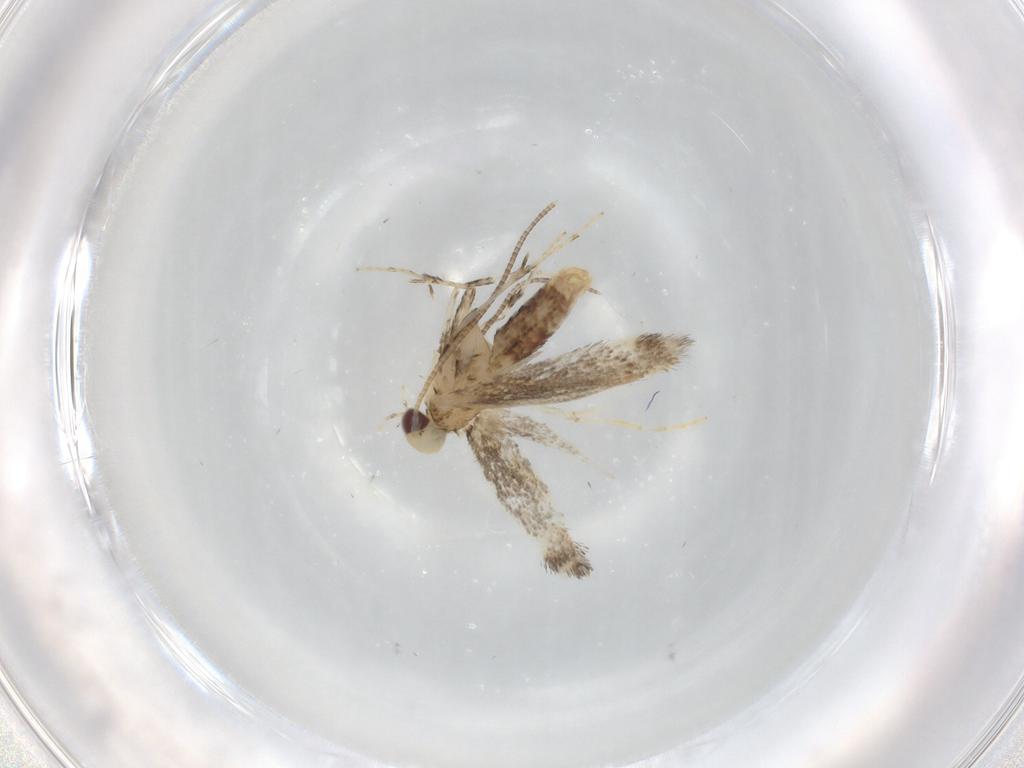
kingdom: Animalia
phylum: Arthropoda
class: Insecta
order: Lepidoptera
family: Gracillariidae
